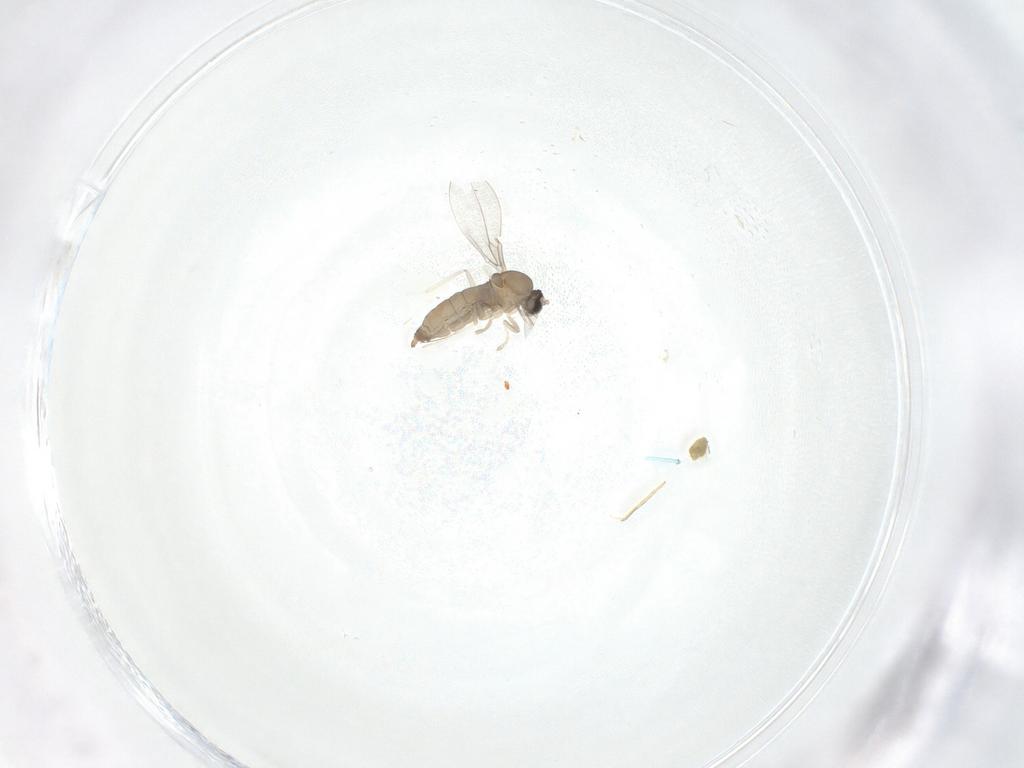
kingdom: Animalia
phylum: Arthropoda
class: Insecta
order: Diptera
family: Cecidomyiidae
